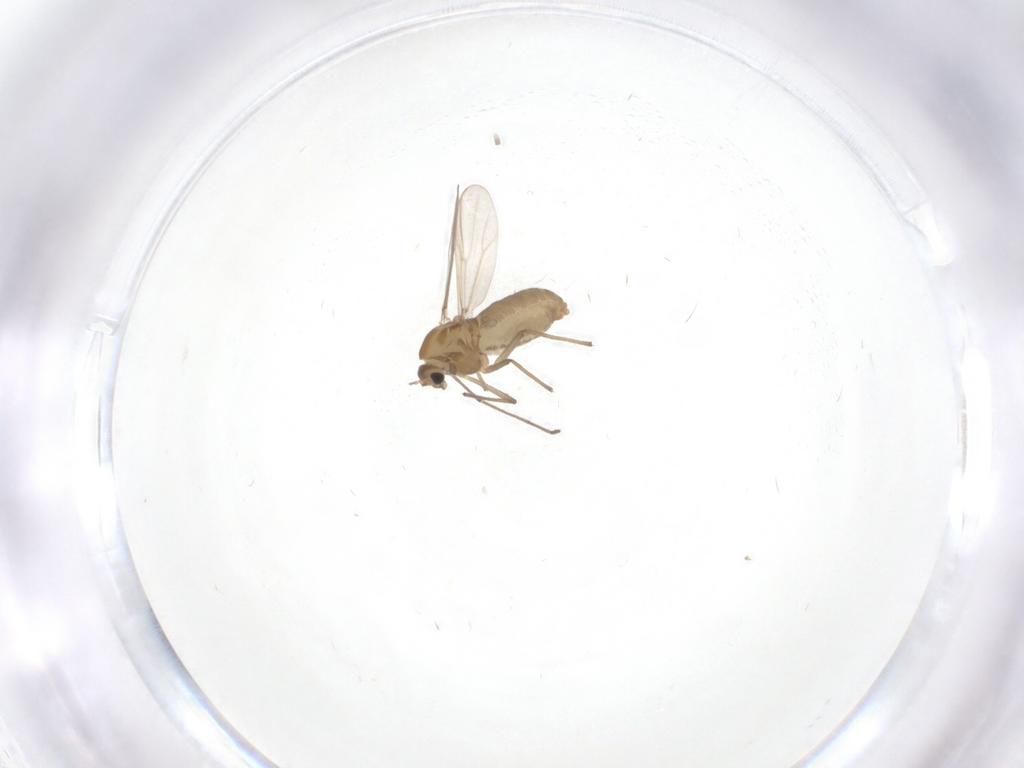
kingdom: Animalia
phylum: Arthropoda
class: Insecta
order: Diptera
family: Chironomidae
